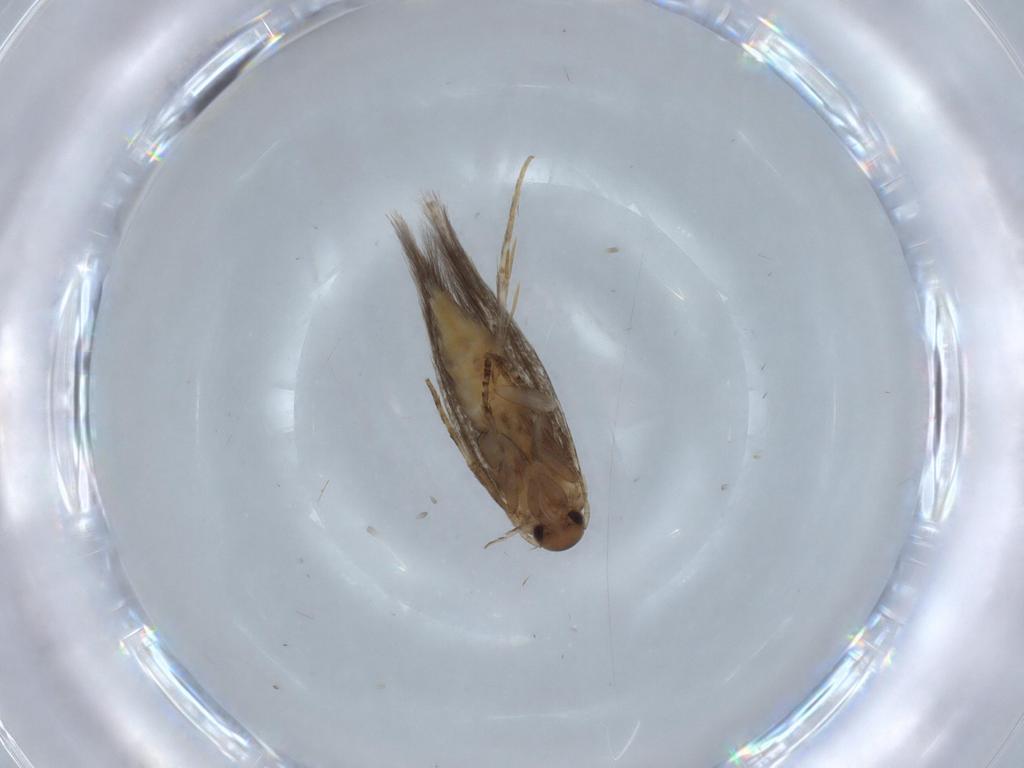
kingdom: Animalia
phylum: Arthropoda
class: Insecta
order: Lepidoptera
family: Elachistidae
